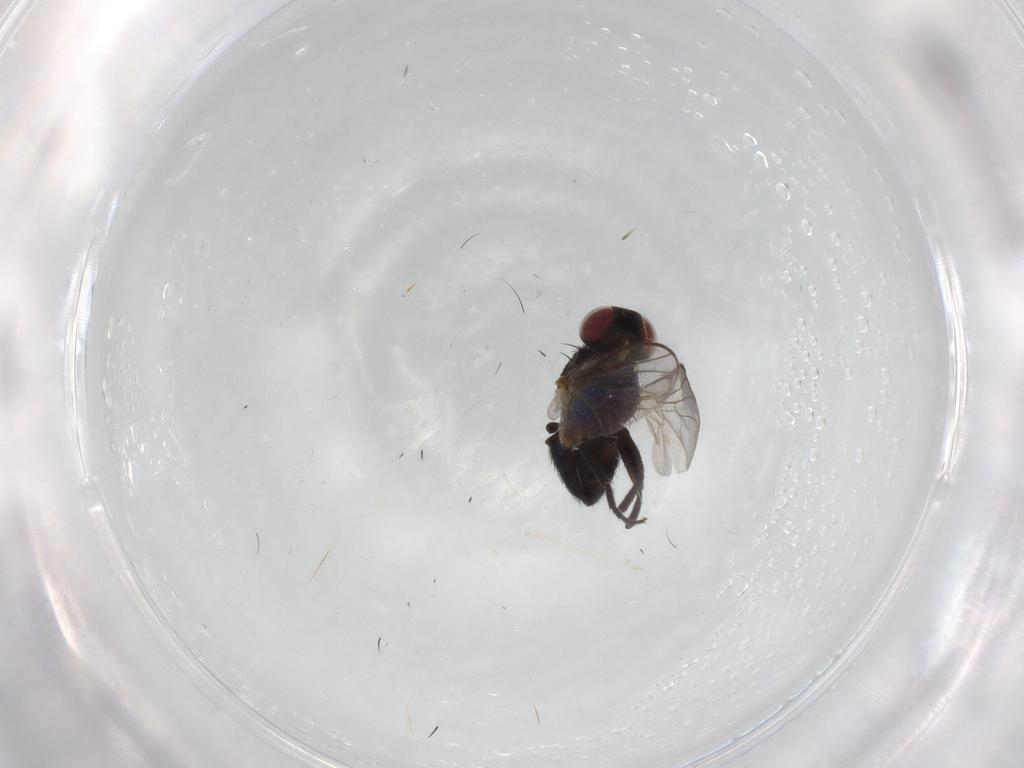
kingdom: Animalia
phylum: Arthropoda
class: Insecta
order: Diptera
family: Agromyzidae
